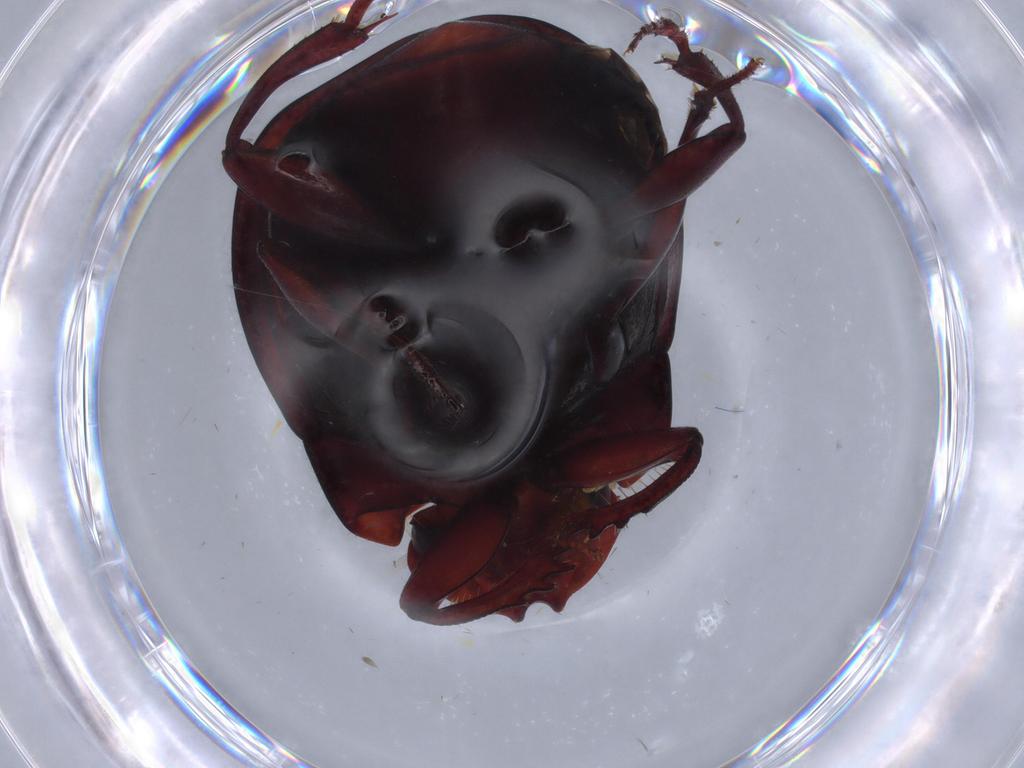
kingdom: Animalia
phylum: Arthropoda
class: Insecta
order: Coleoptera
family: Scarabaeidae
